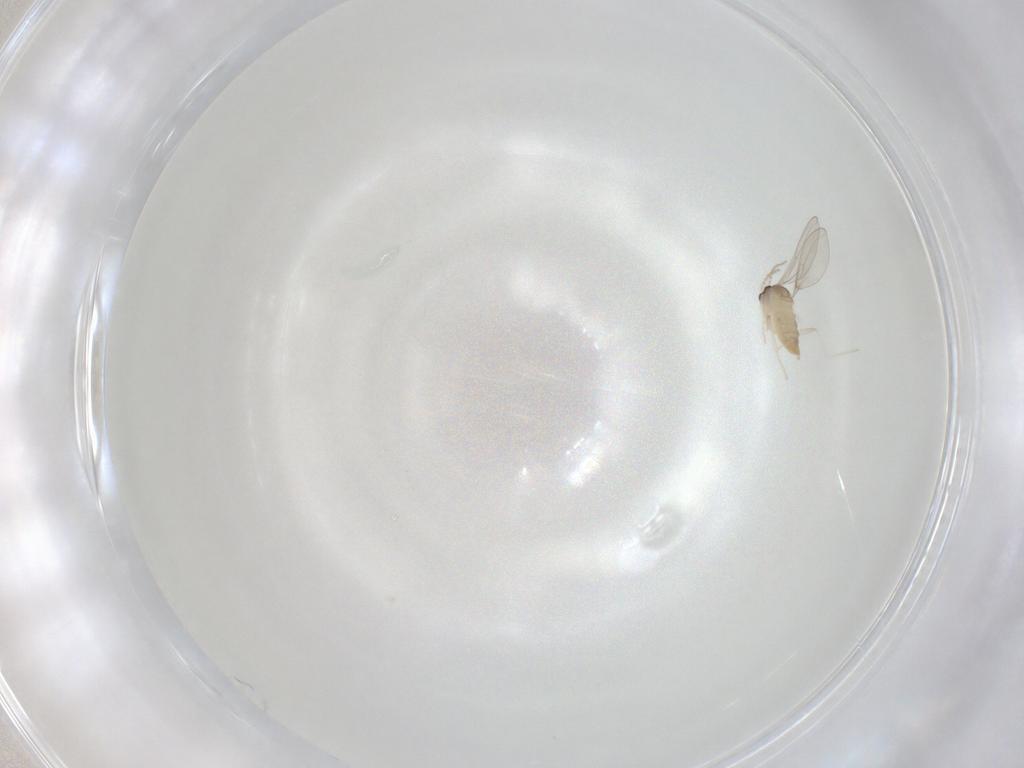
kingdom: Animalia
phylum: Arthropoda
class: Insecta
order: Diptera
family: Cecidomyiidae
